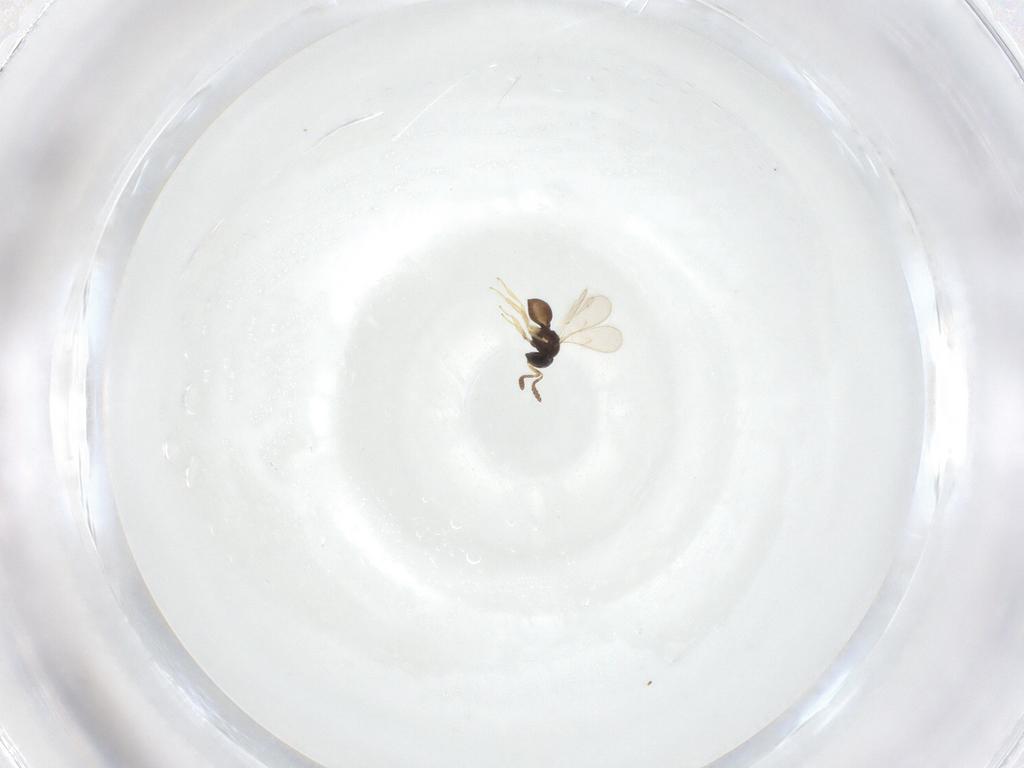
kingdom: Animalia
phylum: Arthropoda
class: Insecta
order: Hymenoptera
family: Scelionidae
